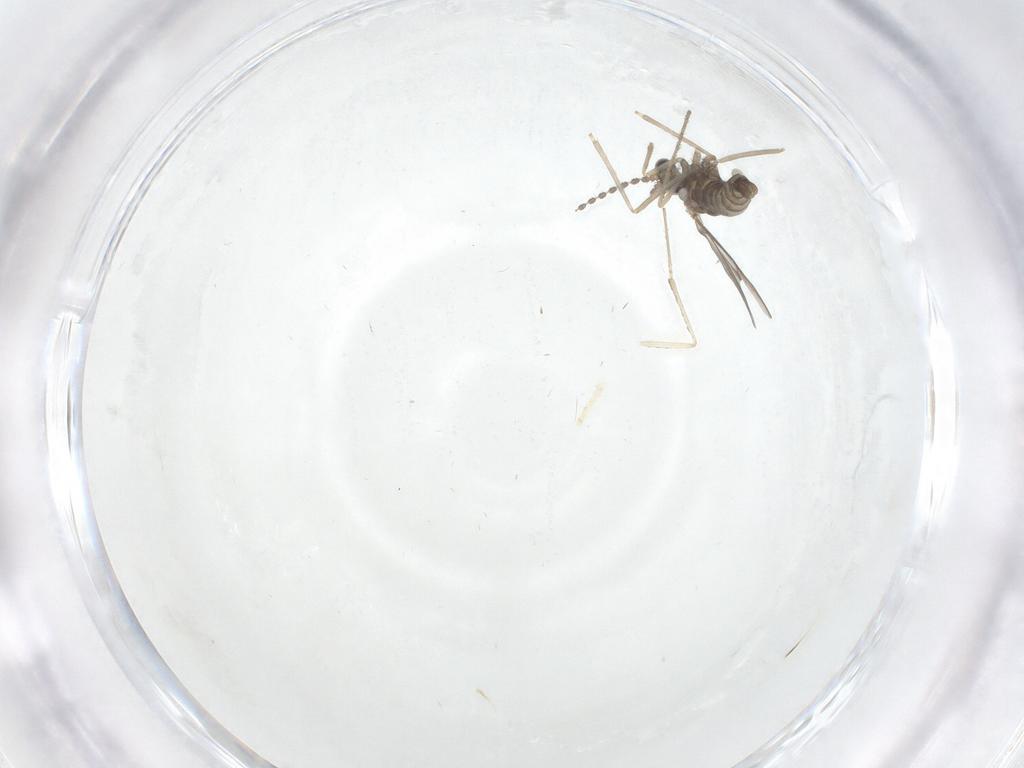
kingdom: Animalia
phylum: Arthropoda
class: Insecta
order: Diptera
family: Cecidomyiidae
